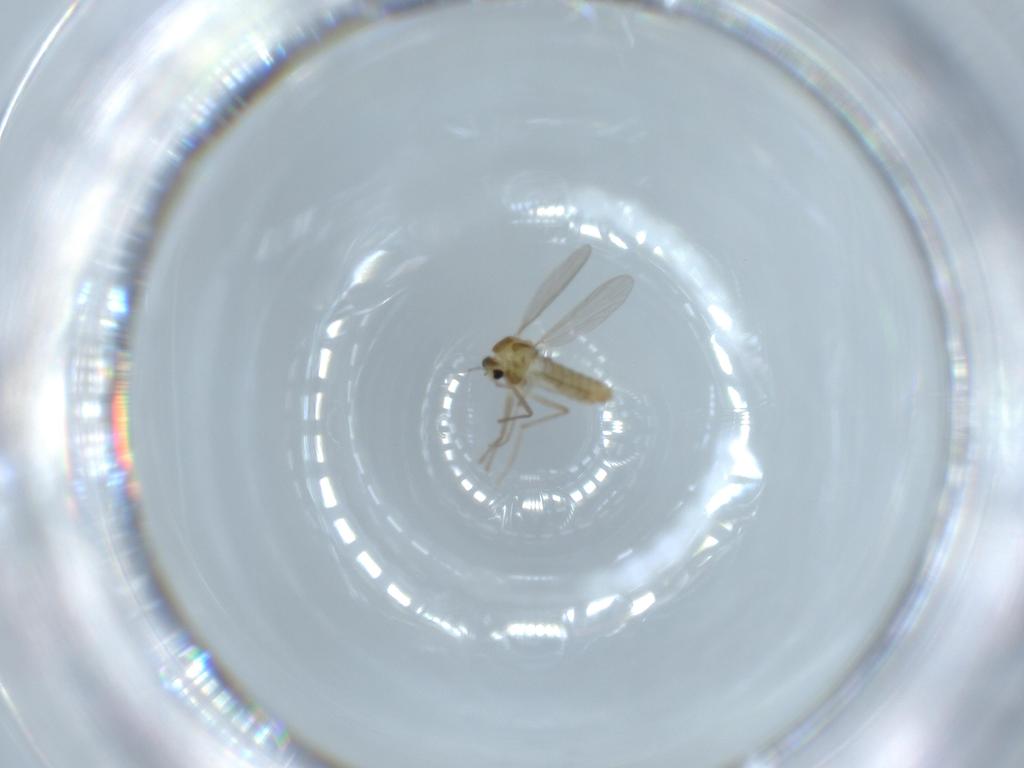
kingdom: Animalia
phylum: Arthropoda
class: Insecta
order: Diptera
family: Chironomidae
